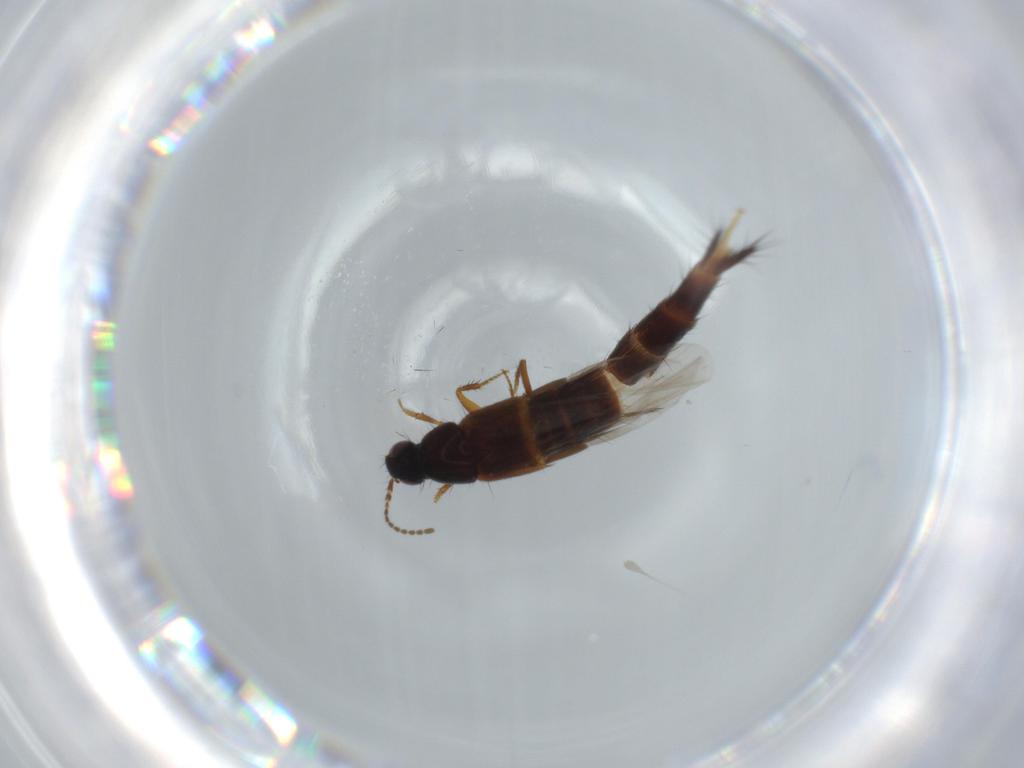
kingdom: Animalia
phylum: Arthropoda
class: Insecta
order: Coleoptera
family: Staphylinidae
